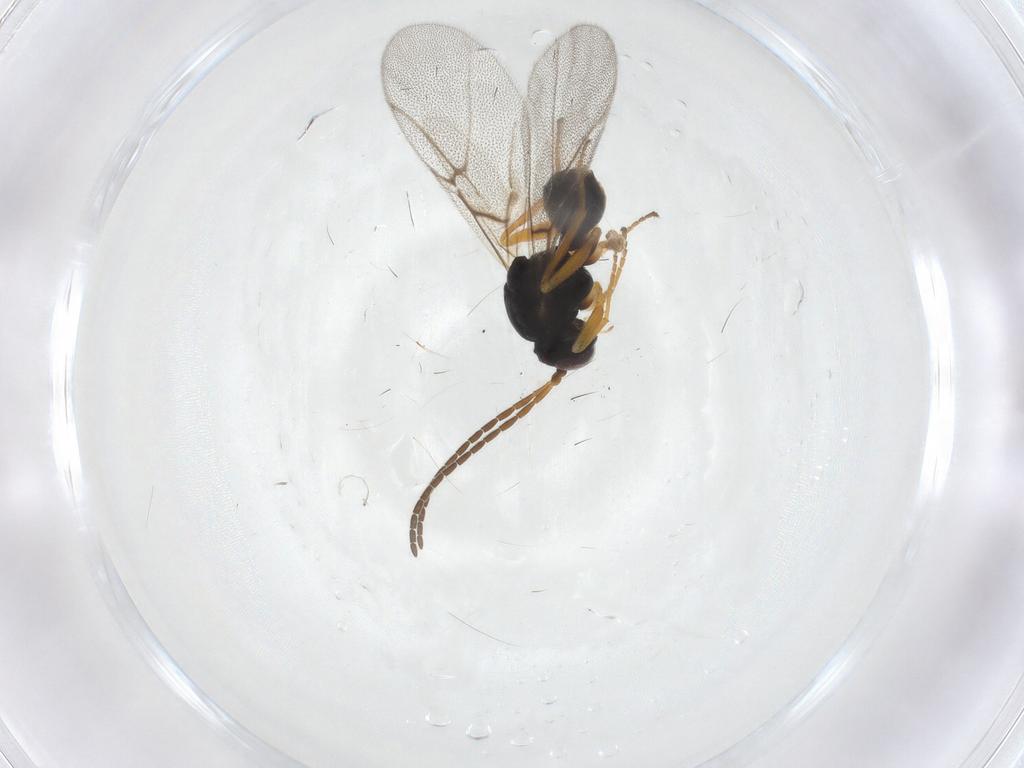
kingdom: Animalia
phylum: Arthropoda
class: Insecta
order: Hymenoptera
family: Cynipidae
